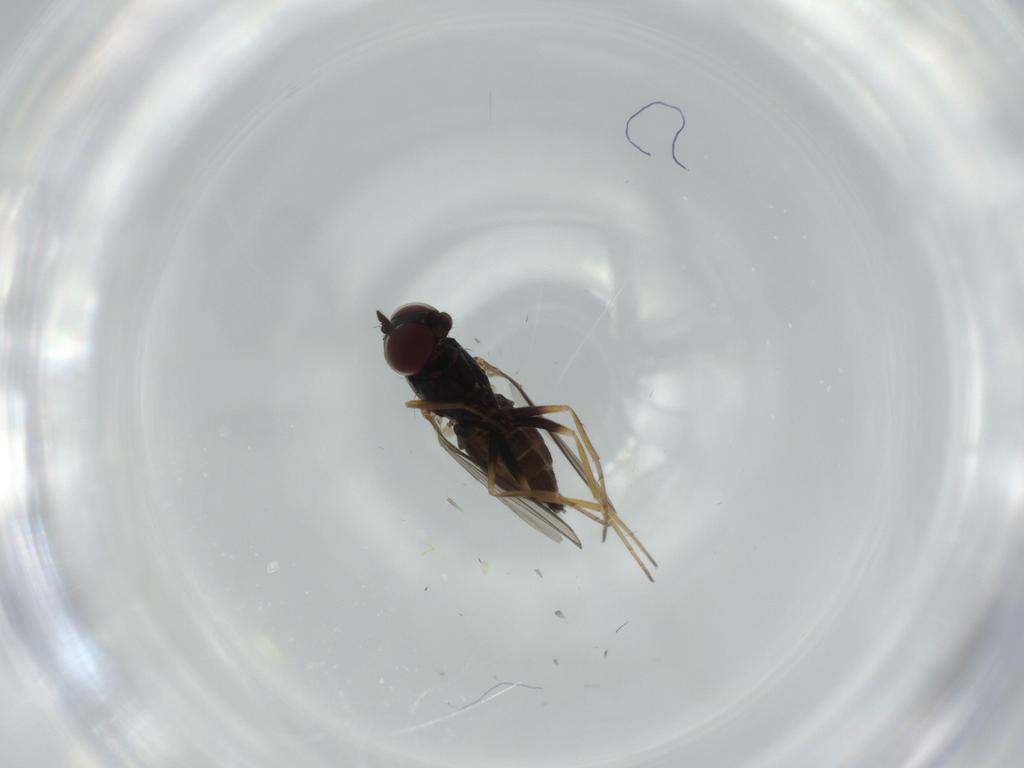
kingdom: Animalia
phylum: Arthropoda
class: Insecta
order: Diptera
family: Dolichopodidae
